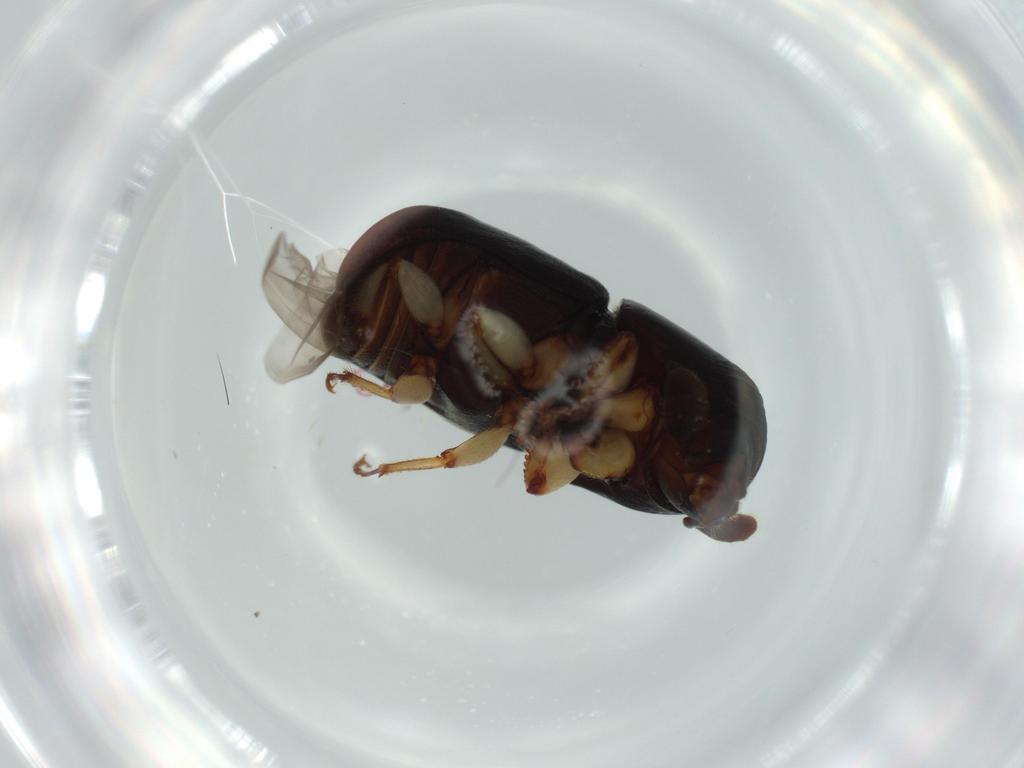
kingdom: Animalia
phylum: Arthropoda
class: Insecta
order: Coleoptera
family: Curculionidae
